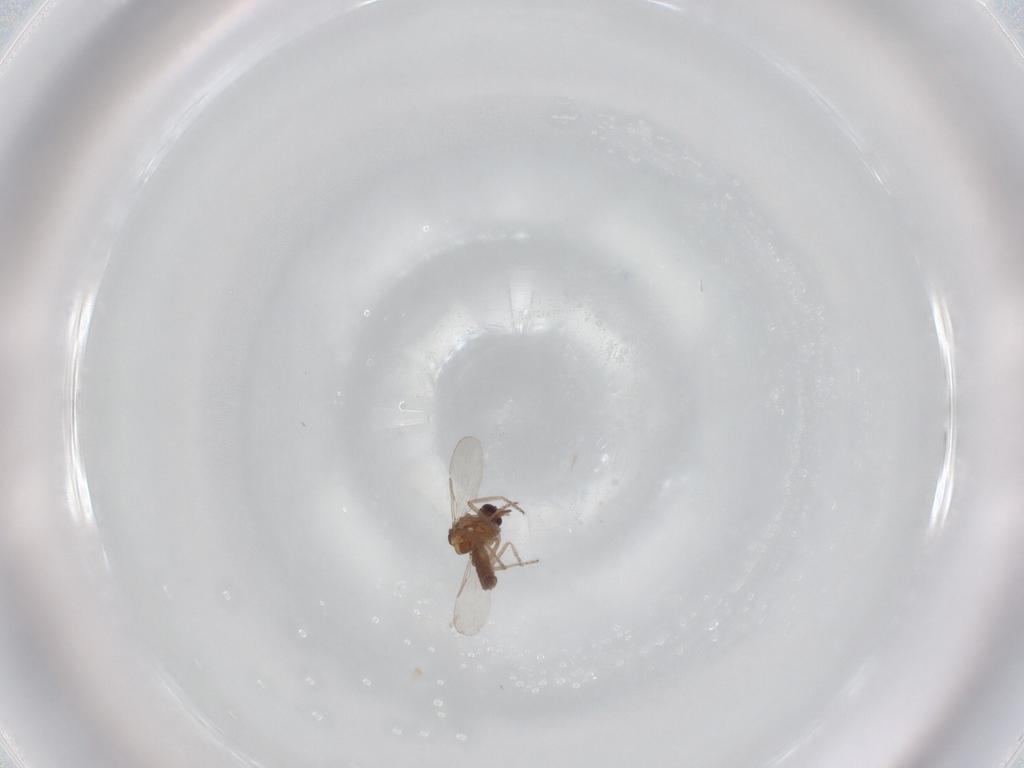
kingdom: Animalia
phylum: Arthropoda
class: Insecta
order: Diptera
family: Ceratopogonidae
